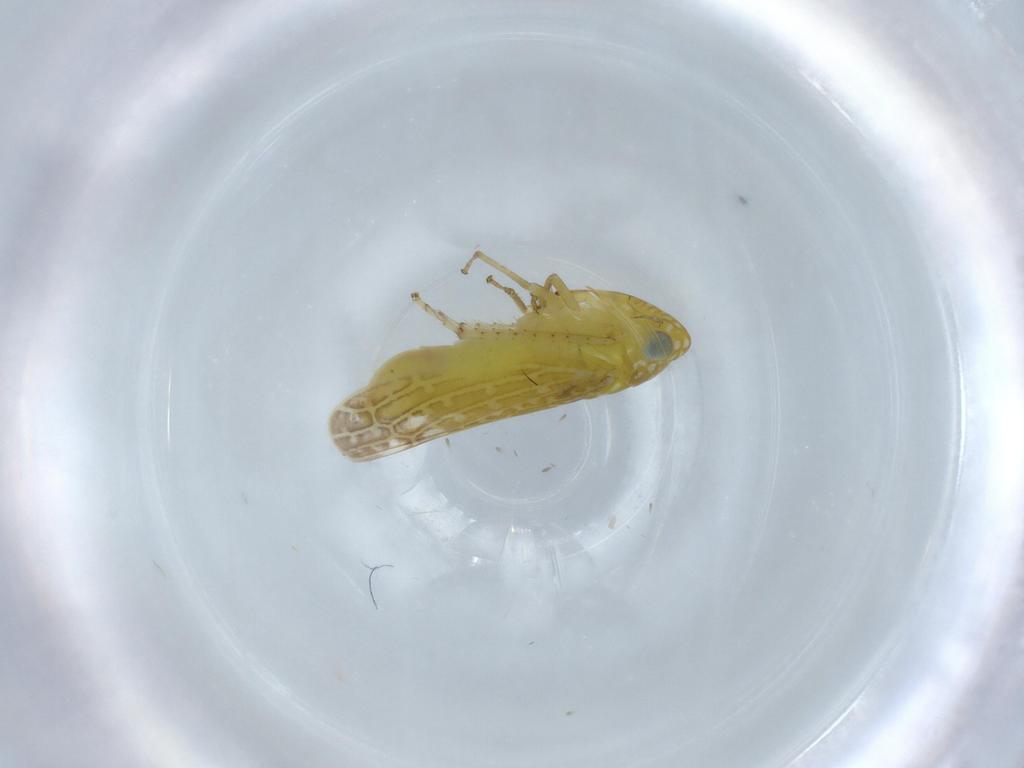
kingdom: Animalia
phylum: Arthropoda
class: Insecta
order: Hemiptera
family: Cicadellidae
